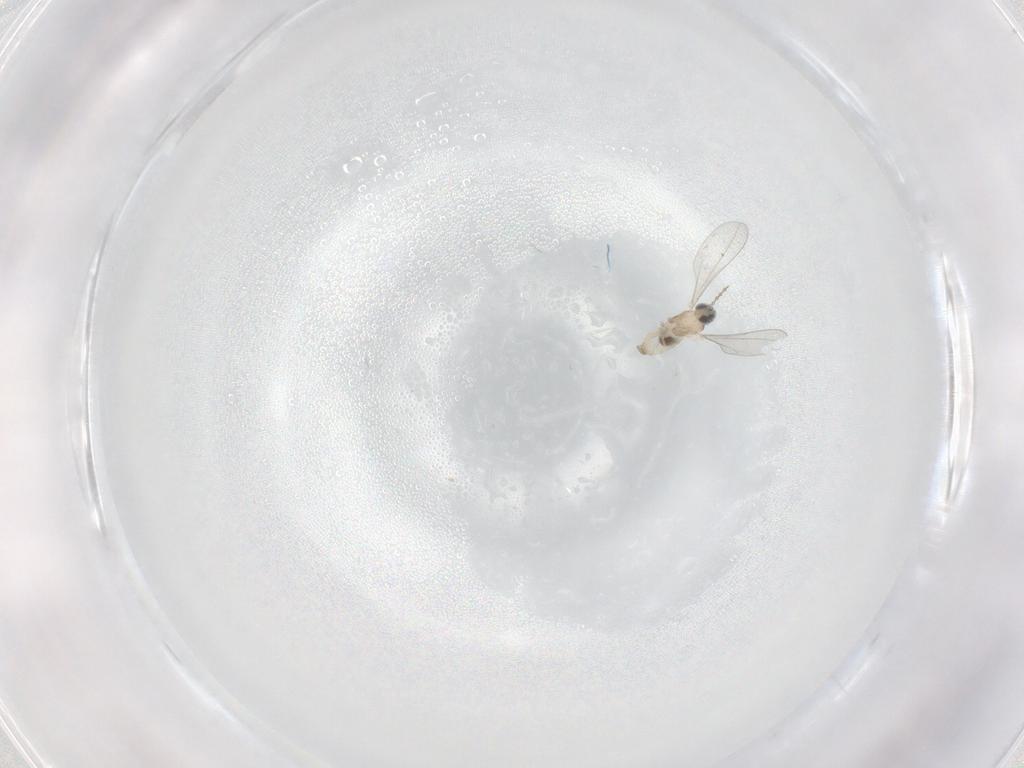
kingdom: Animalia
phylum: Arthropoda
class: Insecta
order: Diptera
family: Cecidomyiidae
